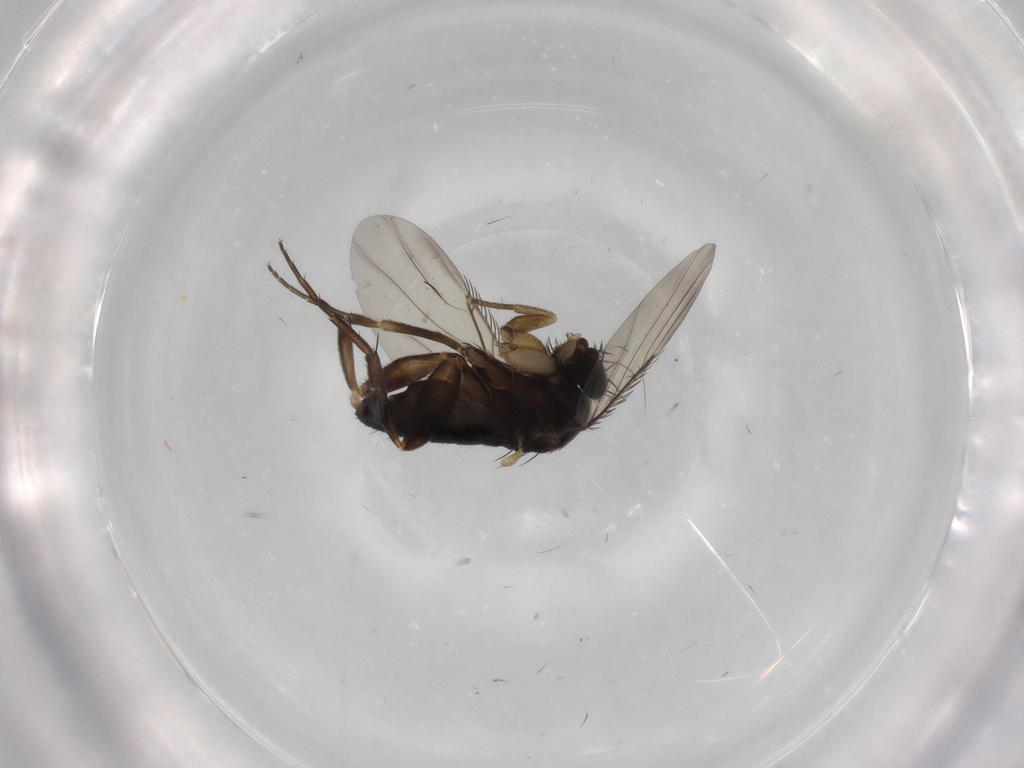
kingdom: Animalia
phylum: Arthropoda
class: Insecta
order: Diptera
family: Phoridae
